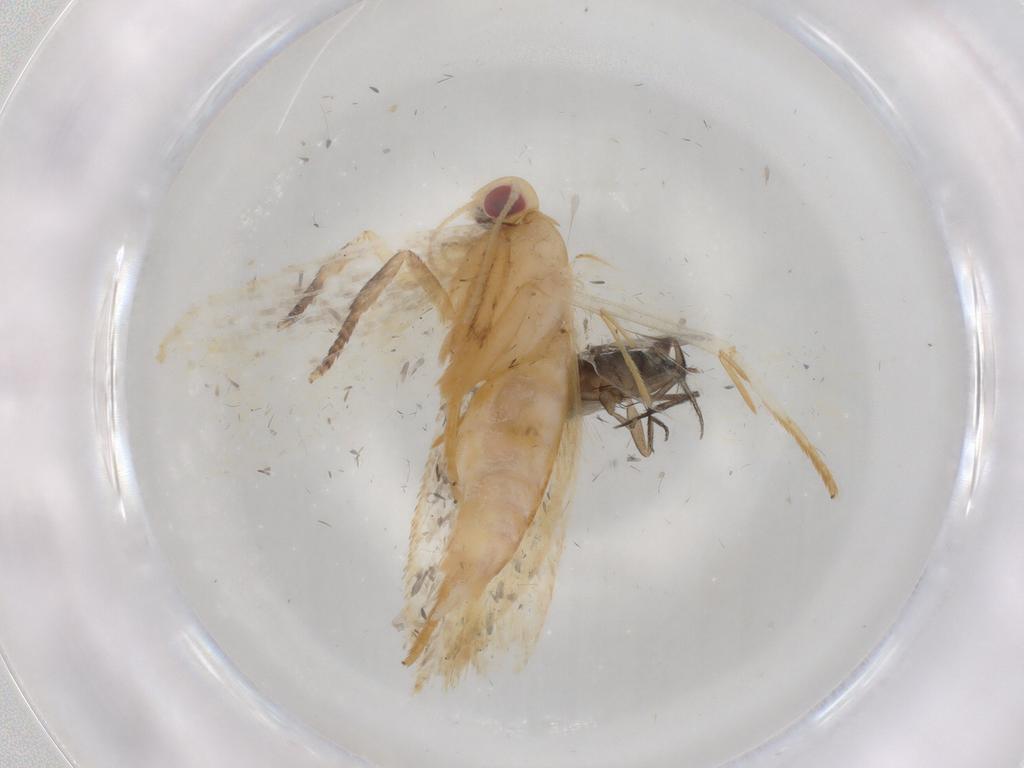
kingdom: Animalia
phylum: Arthropoda
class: Insecta
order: Diptera
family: Phoridae
